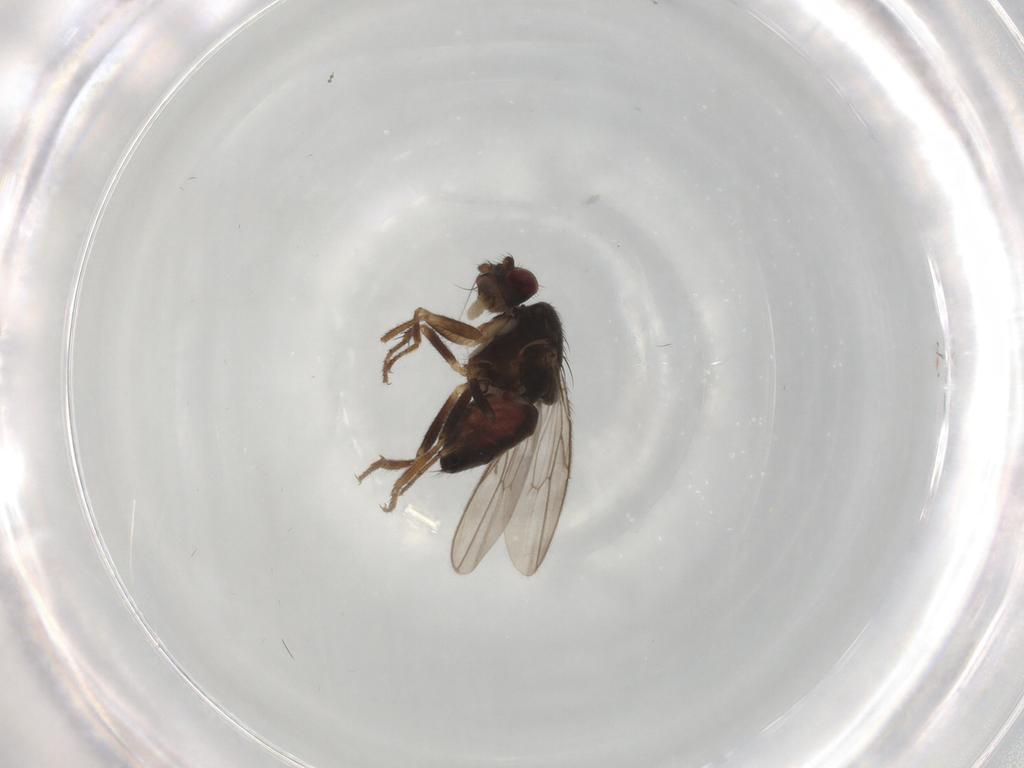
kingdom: Animalia
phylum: Arthropoda
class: Insecta
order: Diptera
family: Sphaeroceridae
